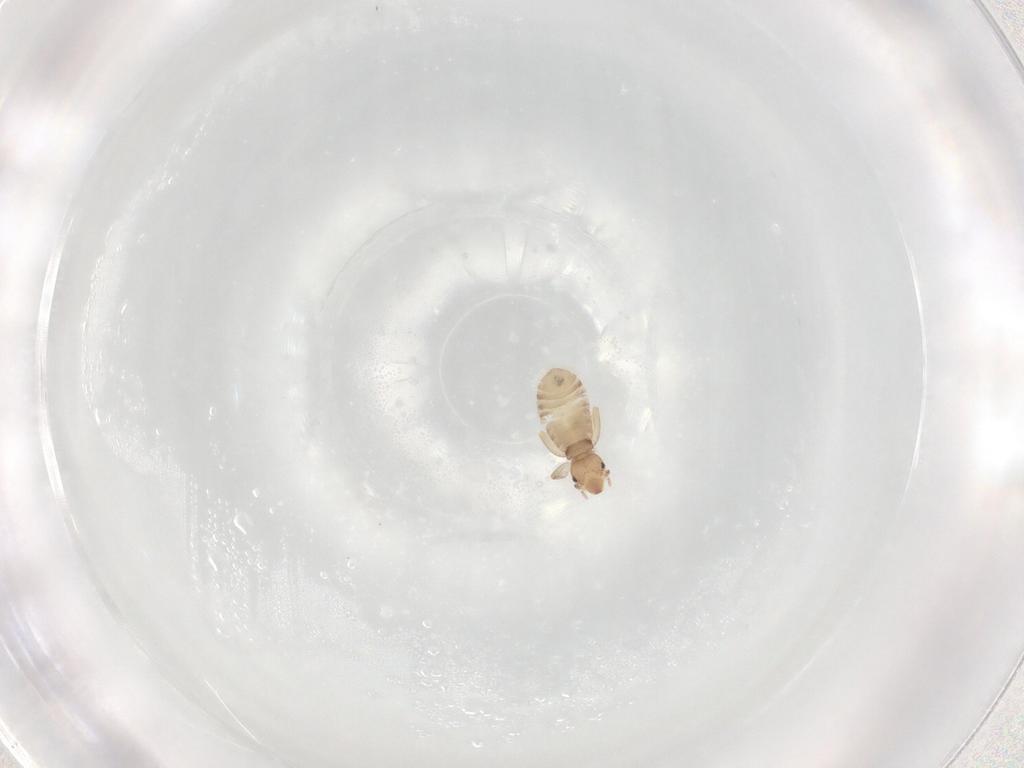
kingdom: Animalia
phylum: Arthropoda
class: Insecta
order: Psocodea
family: Liposcelididae
